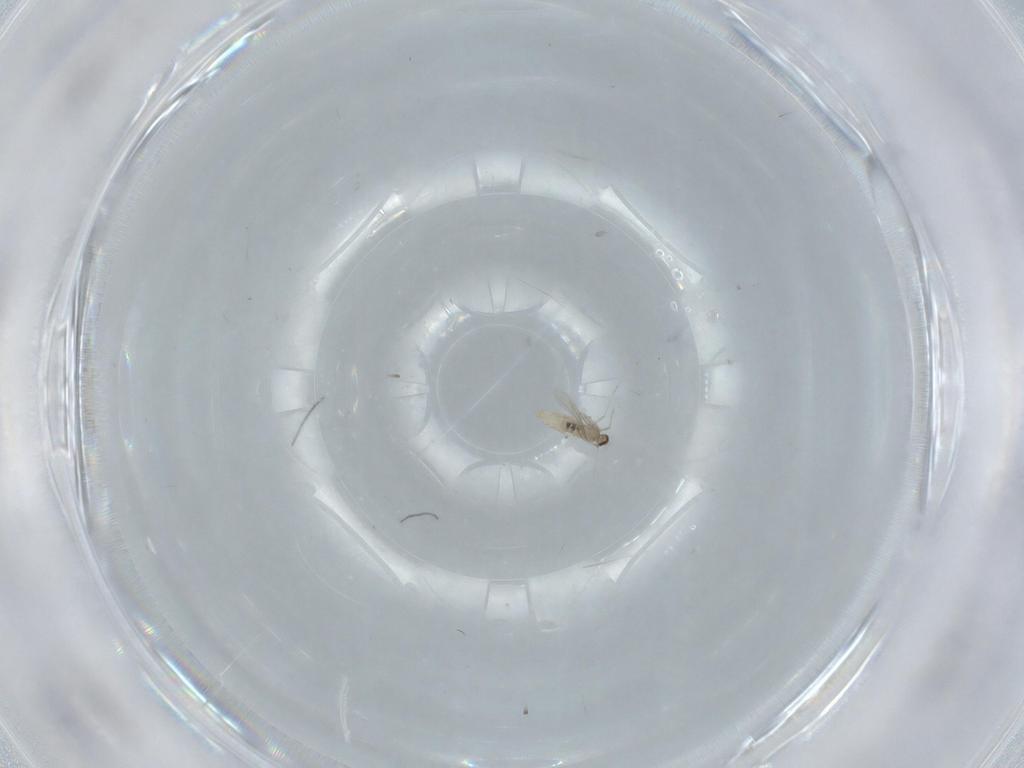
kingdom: Animalia
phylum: Arthropoda
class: Insecta
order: Diptera
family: Cecidomyiidae
